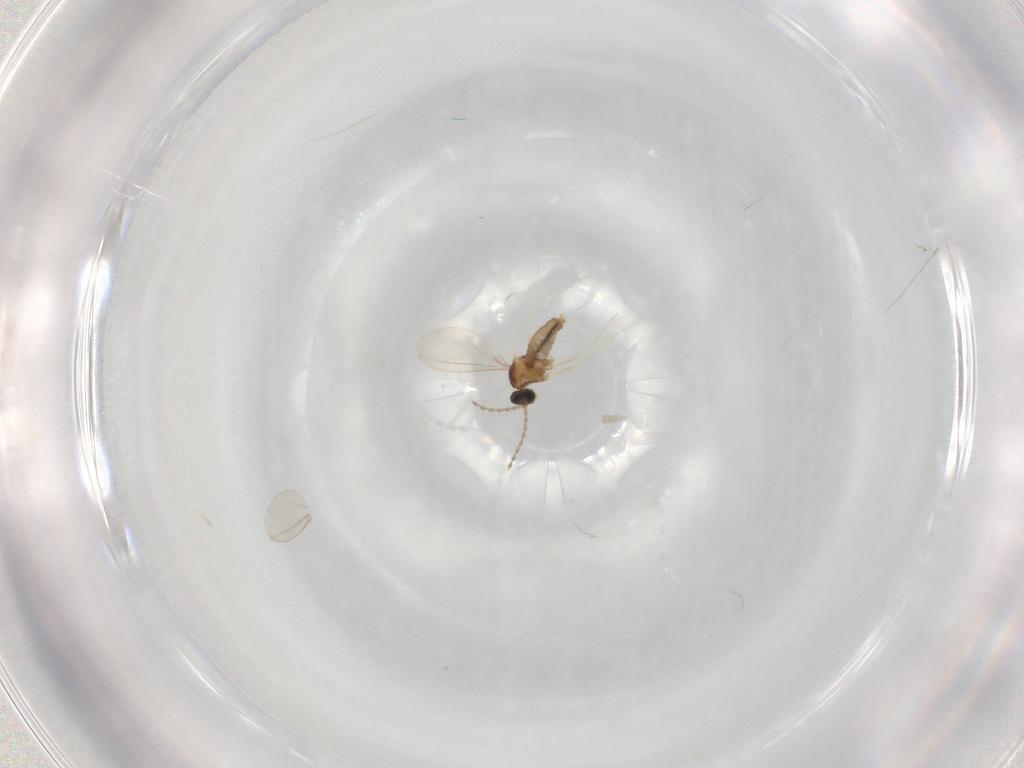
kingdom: Animalia
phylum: Arthropoda
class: Insecta
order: Diptera
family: Cecidomyiidae
